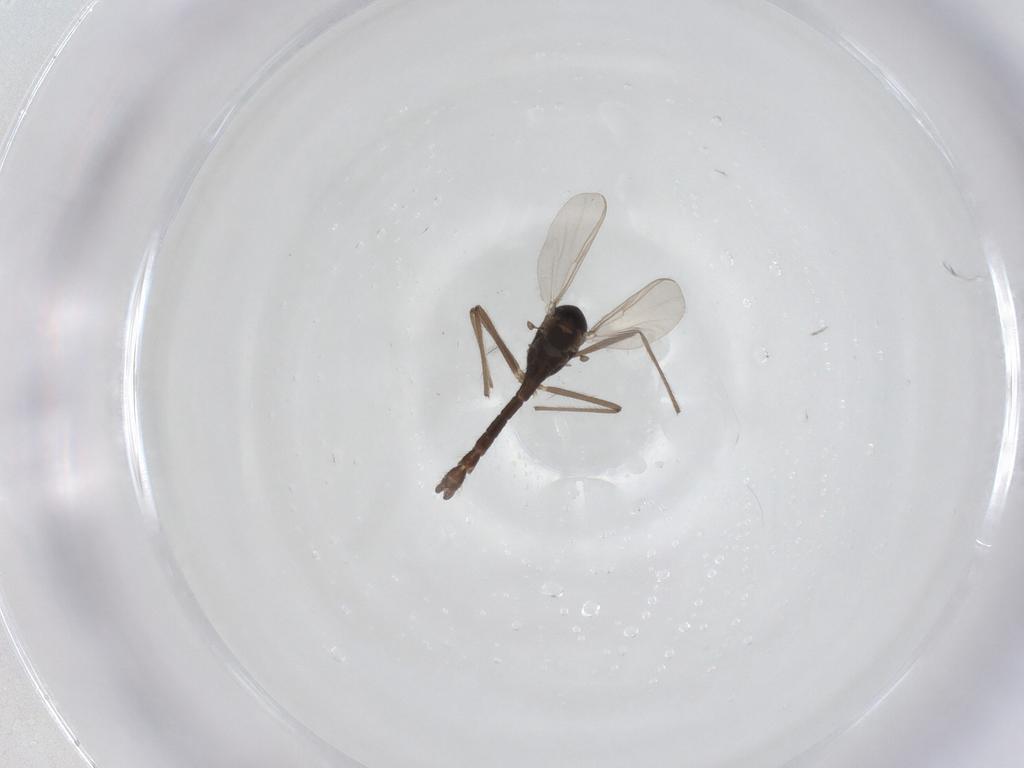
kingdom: Animalia
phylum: Arthropoda
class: Insecta
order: Diptera
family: Chironomidae
